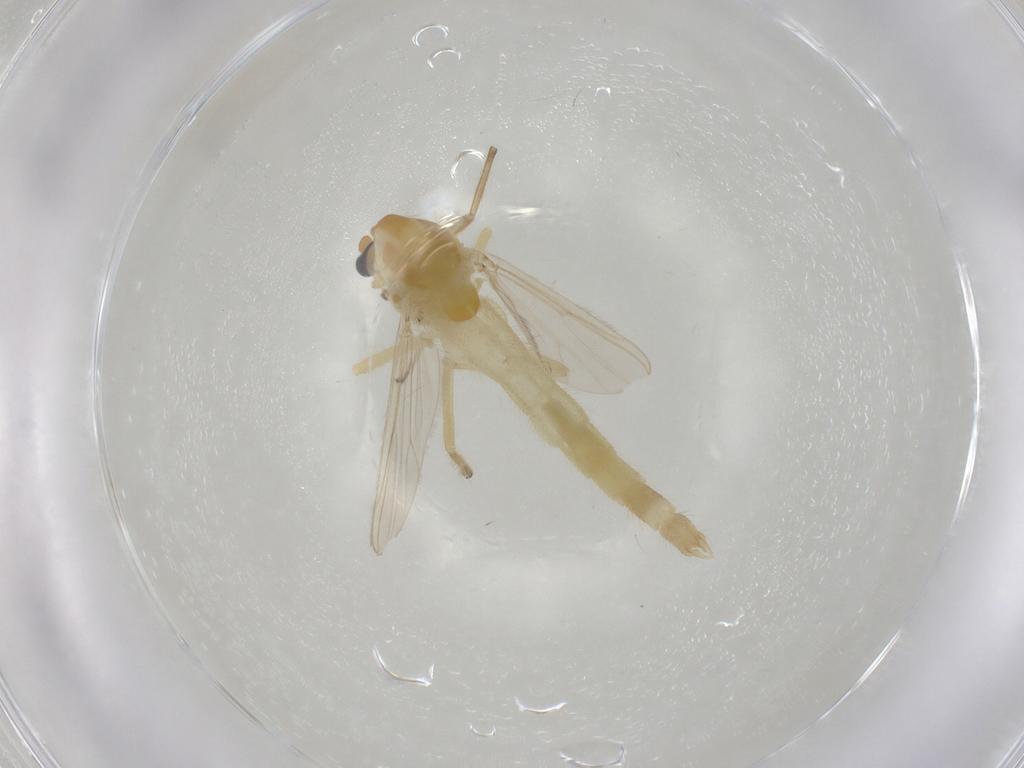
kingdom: Animalia
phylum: Arthropoda
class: Insecta
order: Diptera
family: Chironomidae
